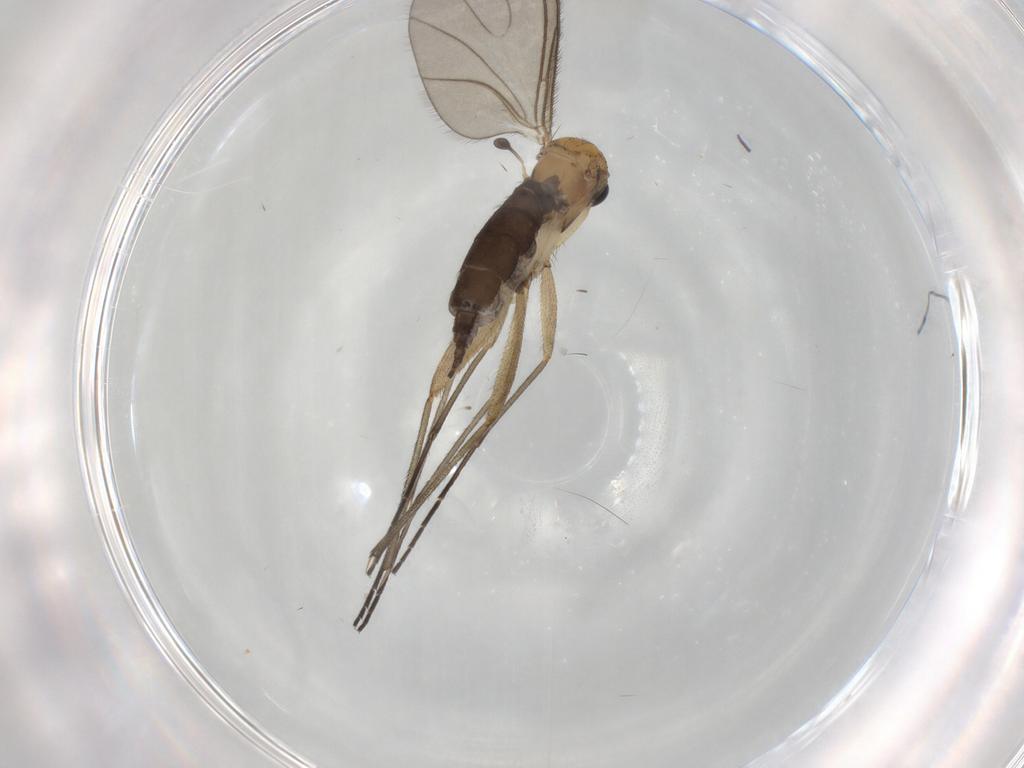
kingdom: Animalia
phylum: Arthropoda
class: Insecta
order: Diptera
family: Sciaridae
